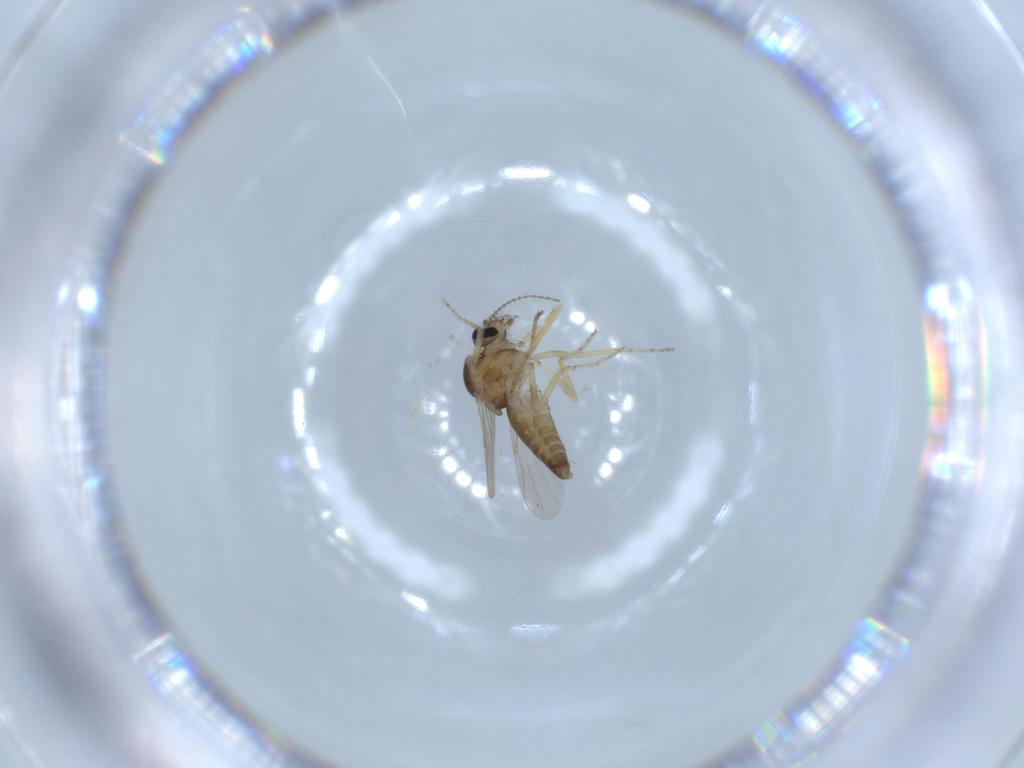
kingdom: Animalia
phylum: Arthropoda
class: Insecta
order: Diptera
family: Ceratopogonidae
